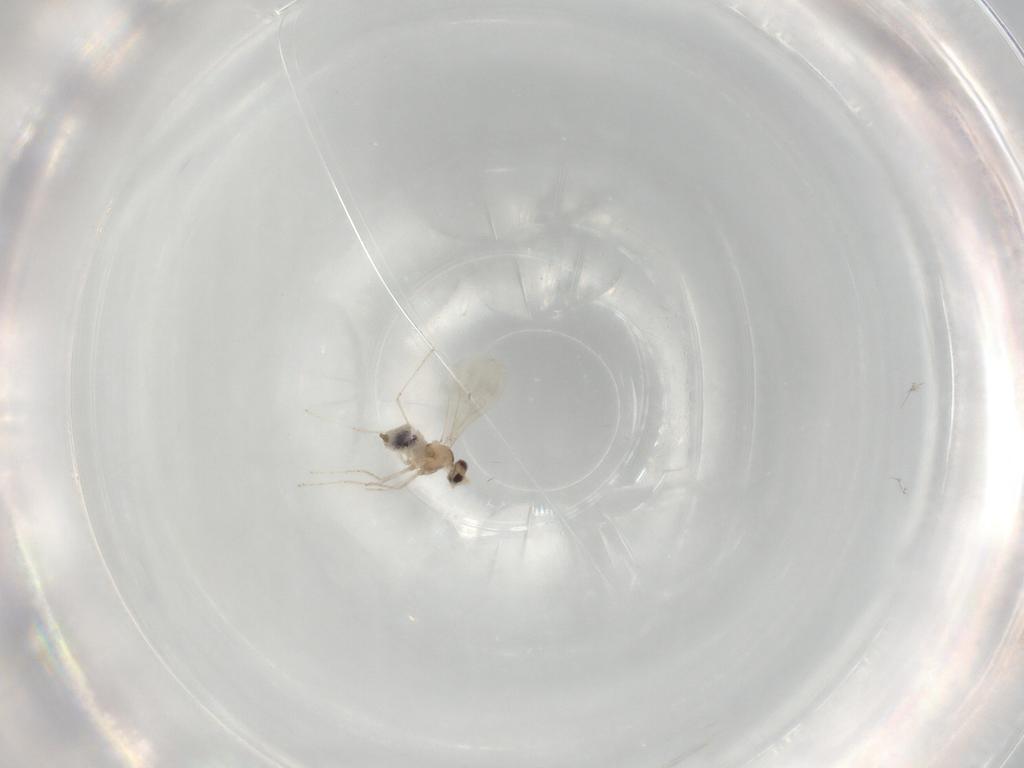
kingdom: Animalia
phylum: Arthropoda
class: Insecta
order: Diptera
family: Cecidomyiidae
